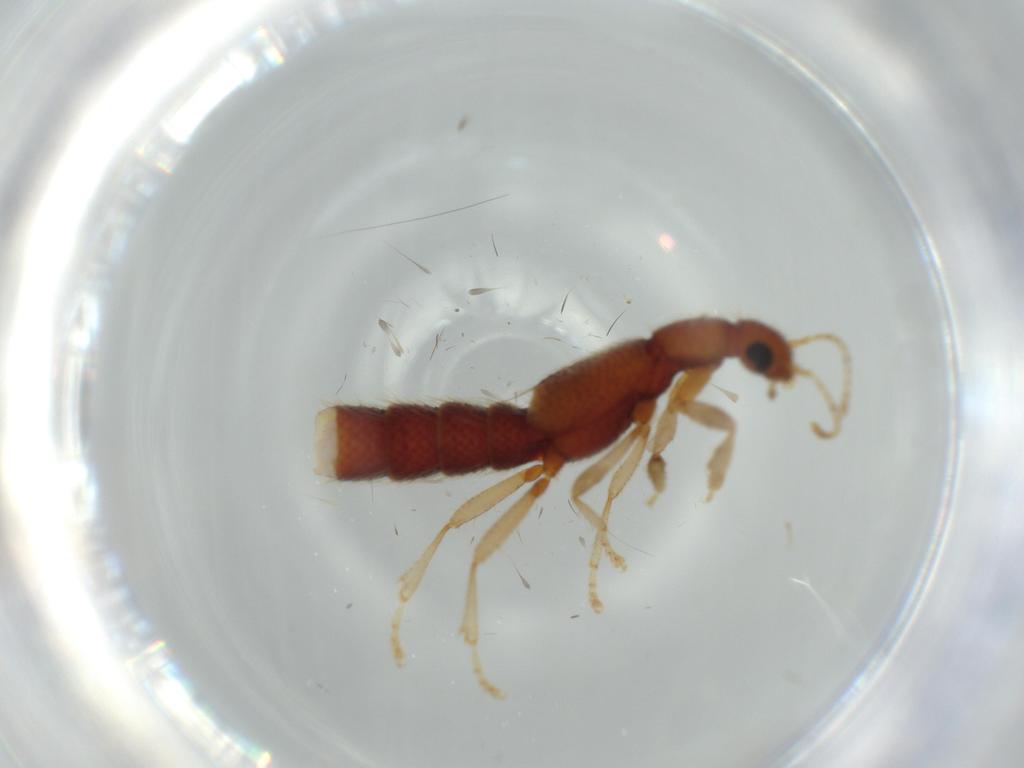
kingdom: Animalia
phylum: Arthropoda
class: Insecta
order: Coleoptera
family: Staphylinidae
